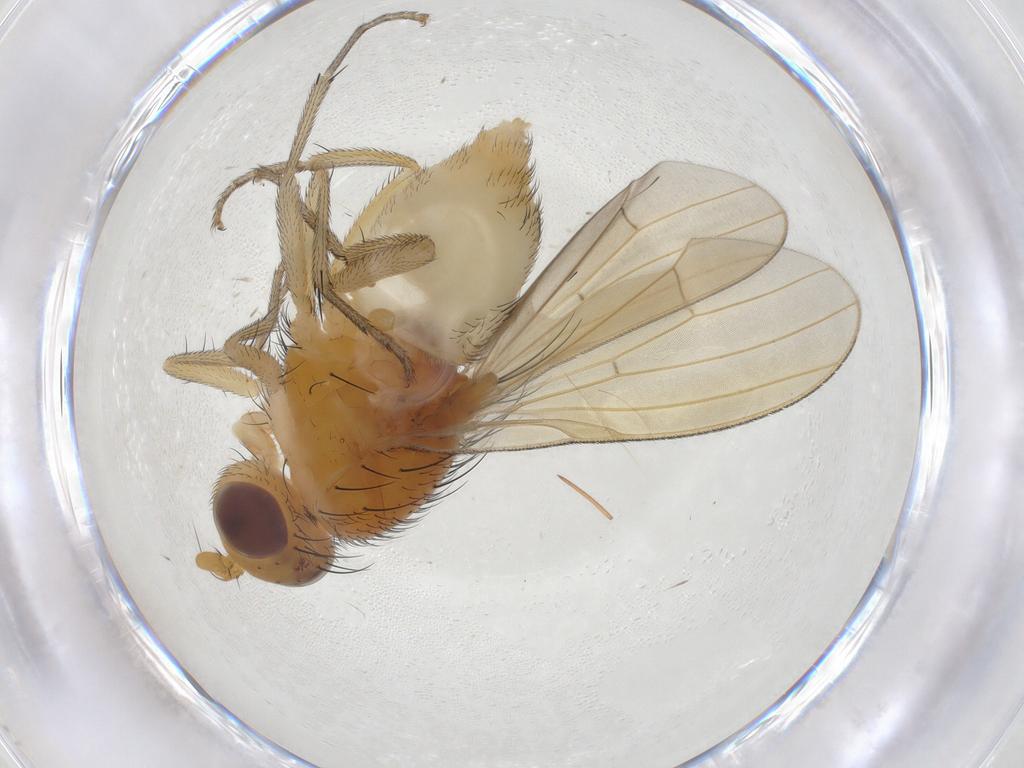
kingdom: Animalia
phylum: Arthropoda
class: Insecta
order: Diptera
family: Lauxaniidae
